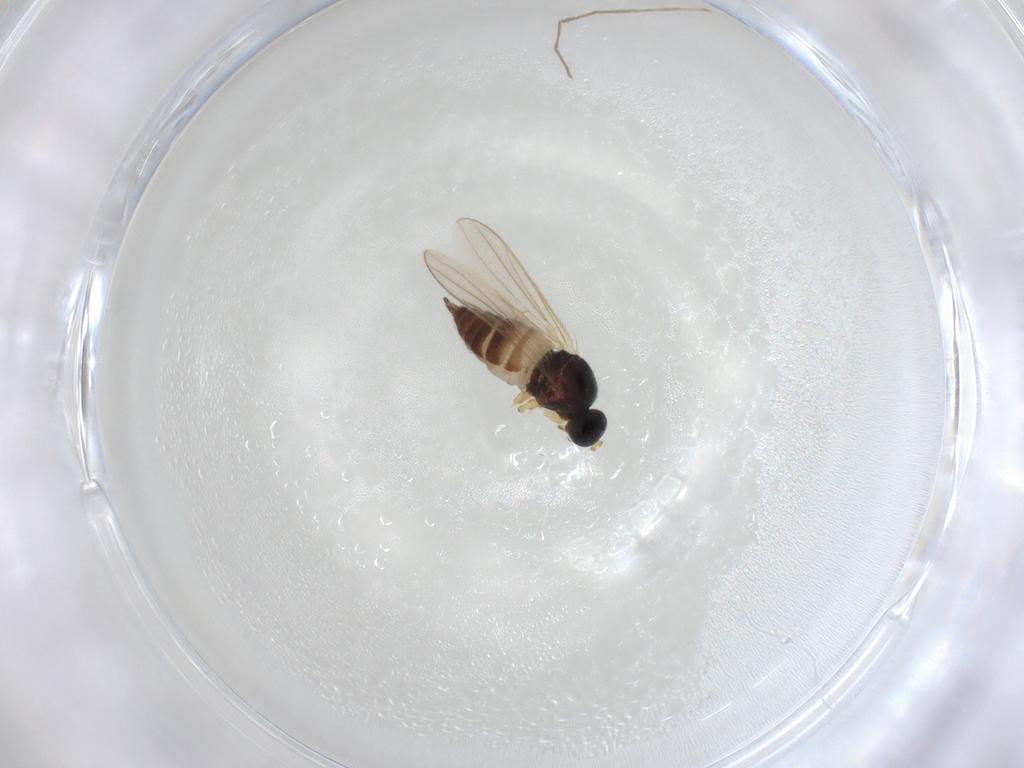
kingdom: Animalia
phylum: Arthropoda
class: Insecta
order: Diptera
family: Hybotidae
